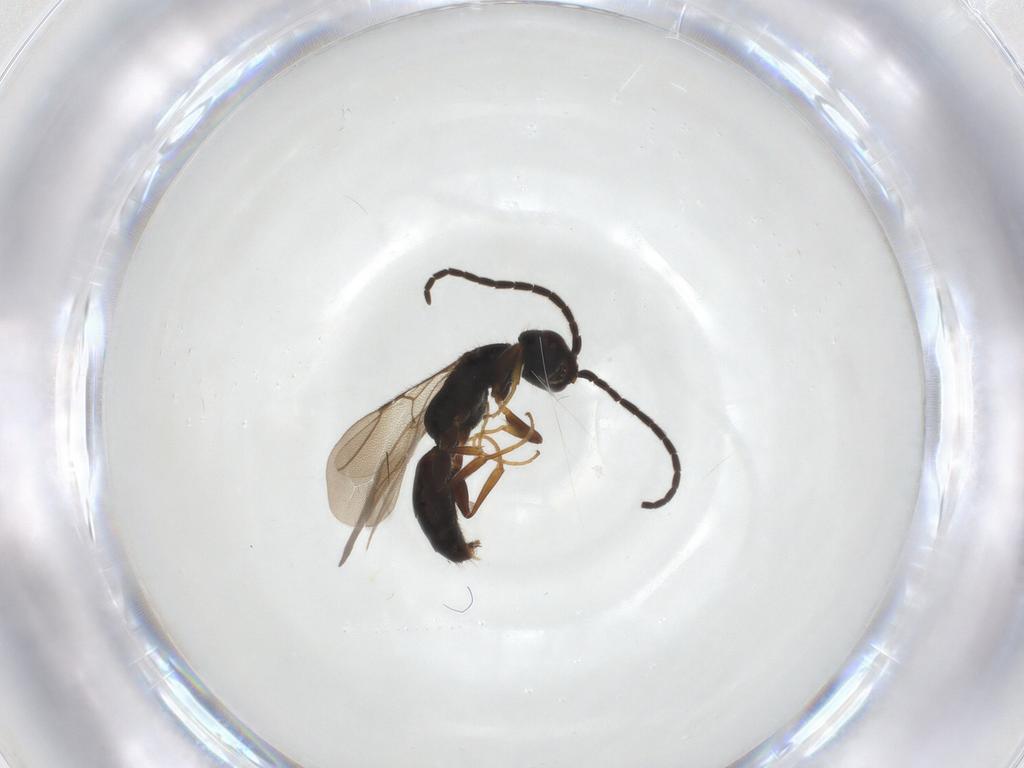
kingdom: Animalia
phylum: Arthropoda
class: Insecta
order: Hymenoptera
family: Bethylidae
